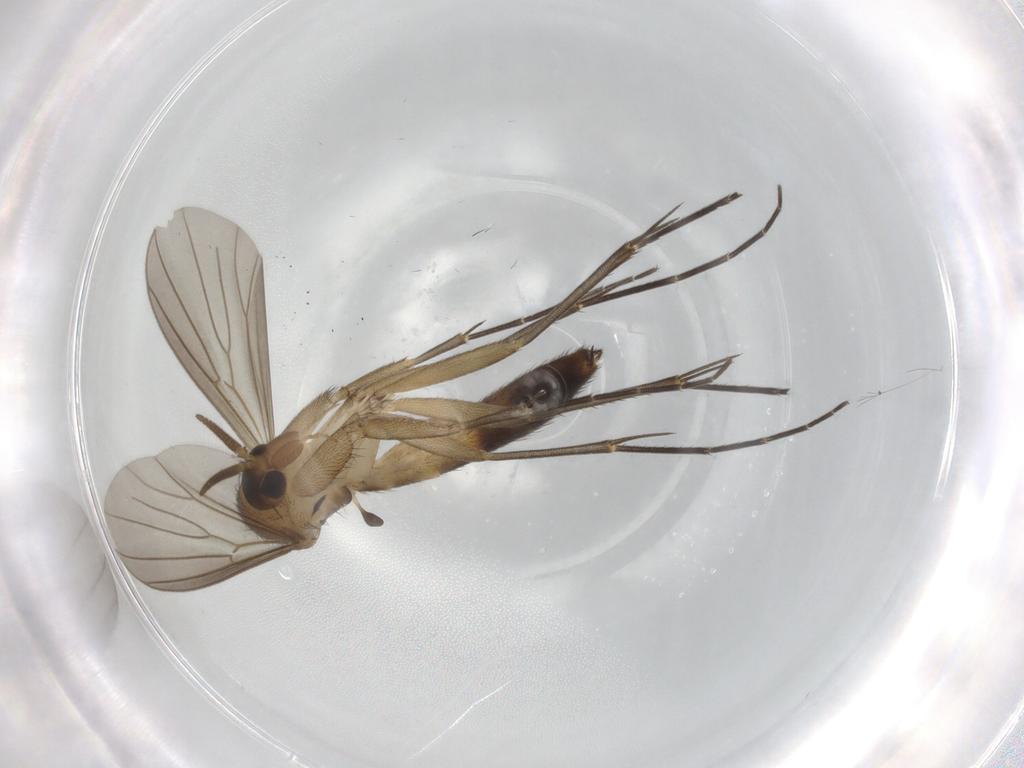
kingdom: Animalia
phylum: Arthropoda
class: Insecta
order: Diptera
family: Mycetophilidae
